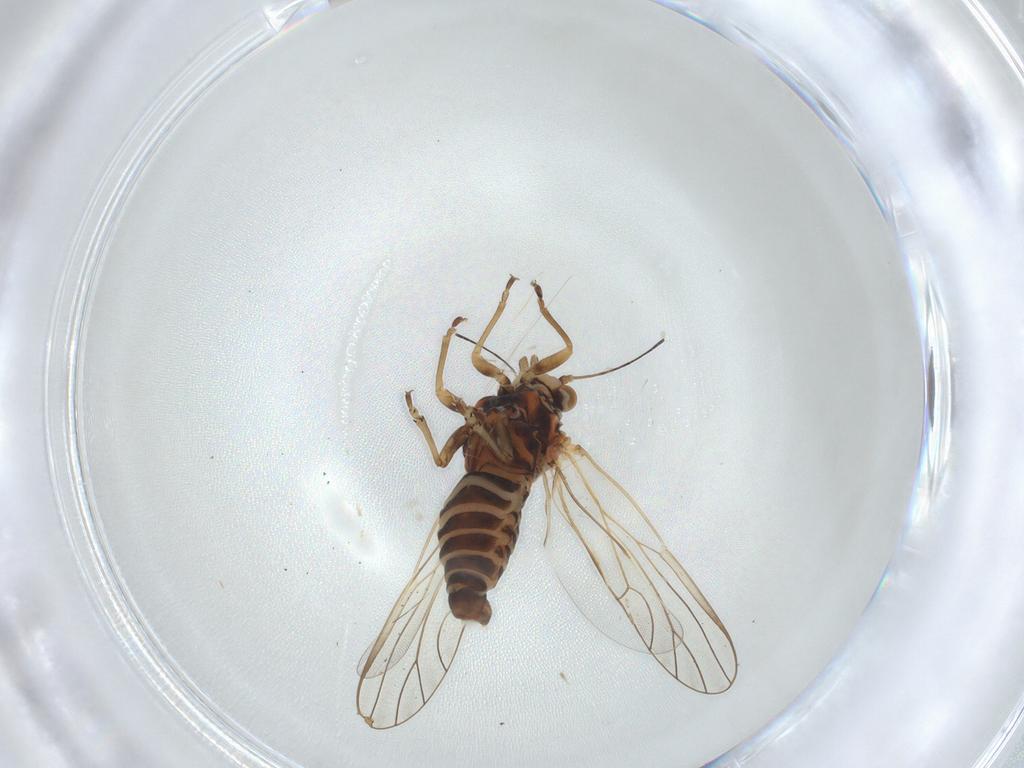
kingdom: Animalia
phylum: Arthropoda
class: Insecta
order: Hemiptera
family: Psyllidae
